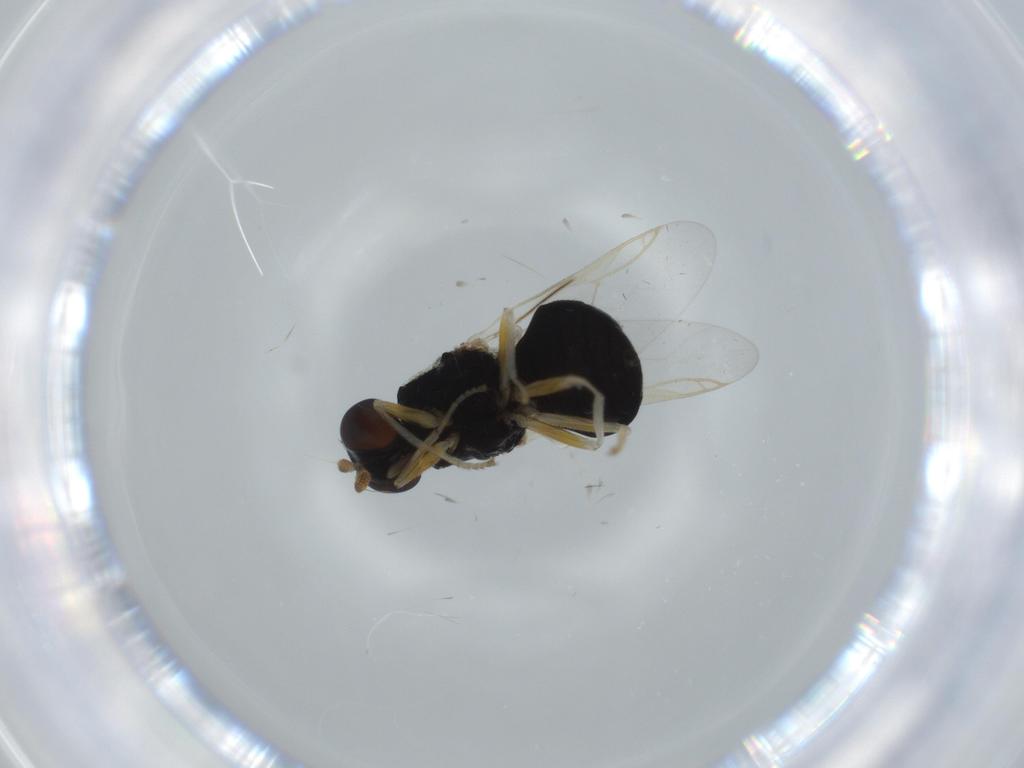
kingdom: Animalia
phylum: Arthropoda
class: Insecta
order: Diptera
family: Stratiomyidae
